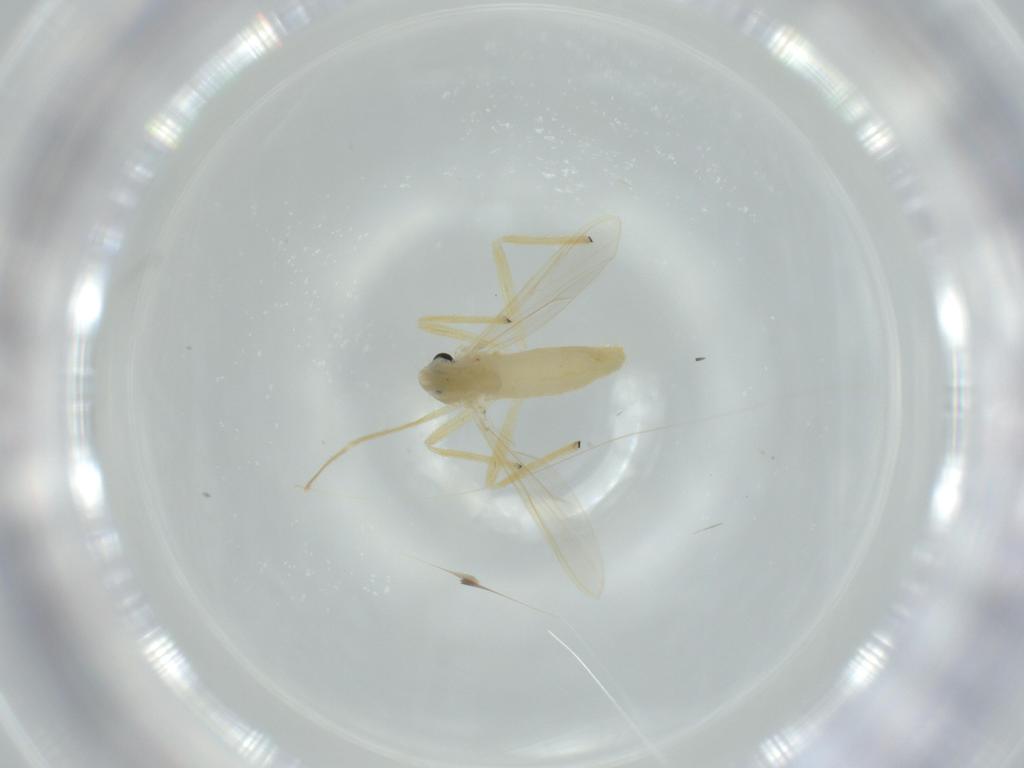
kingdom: Animalia
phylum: Arthropoda
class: Insecta
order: Diptera
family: Chironomidae
